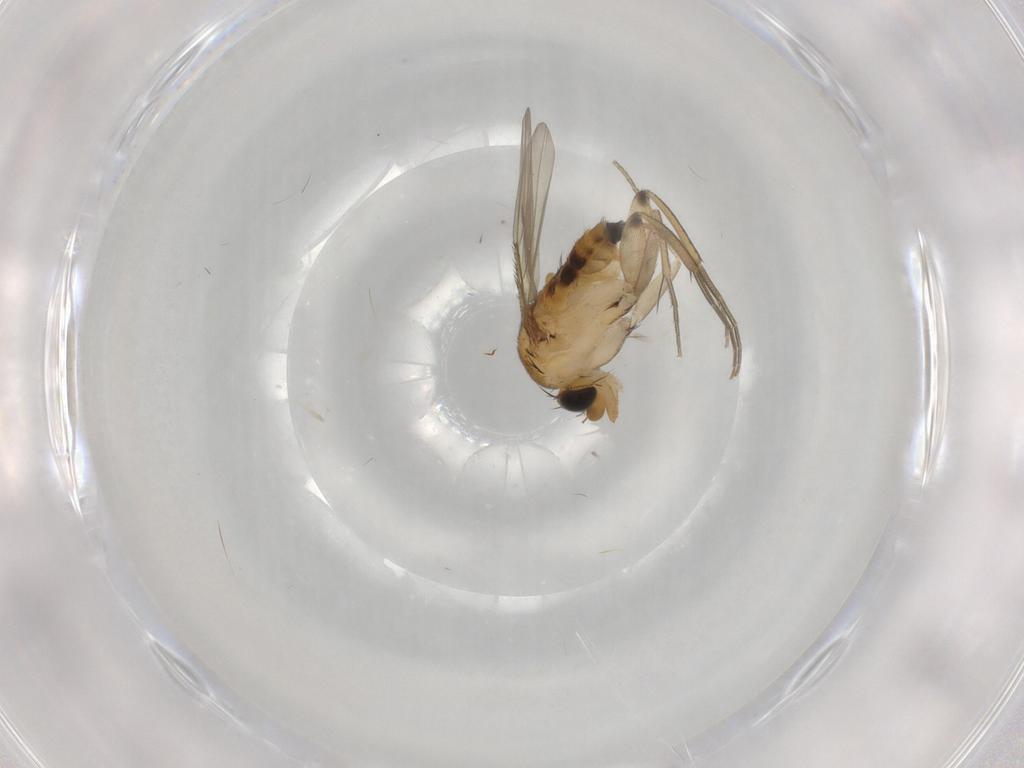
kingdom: Animalia
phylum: Arthropoda
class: Insecta
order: Diptera
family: Phoridae
